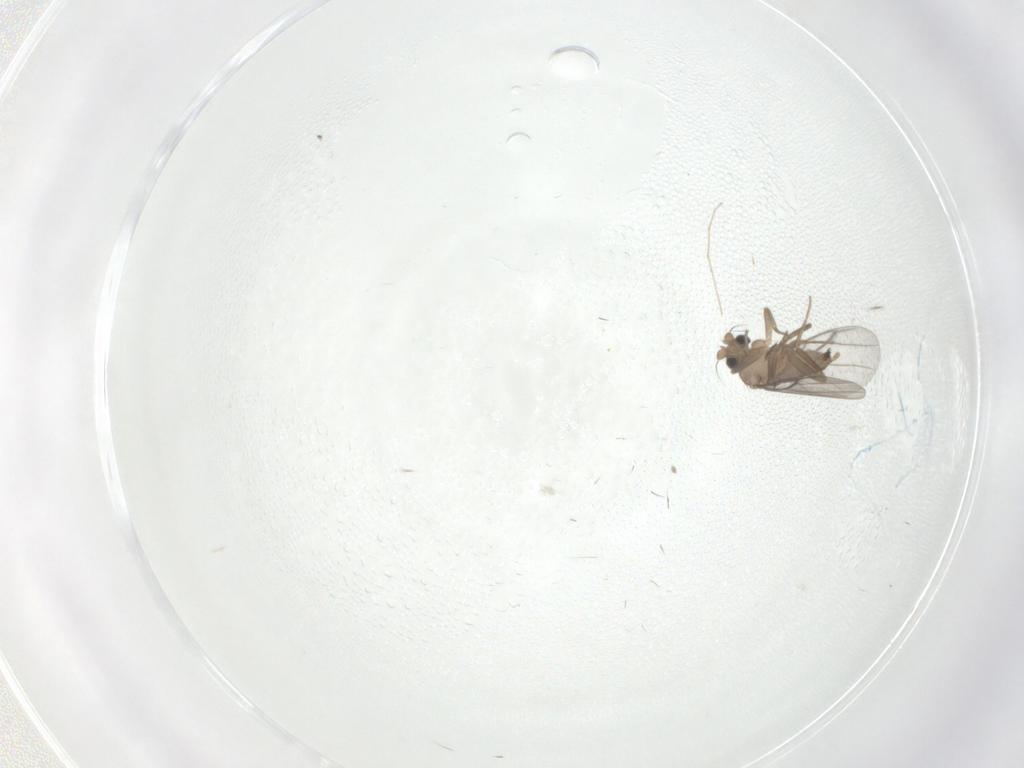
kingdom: Animalia
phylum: Arthropoda
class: Insecta
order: Diptera
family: Psychodidae
